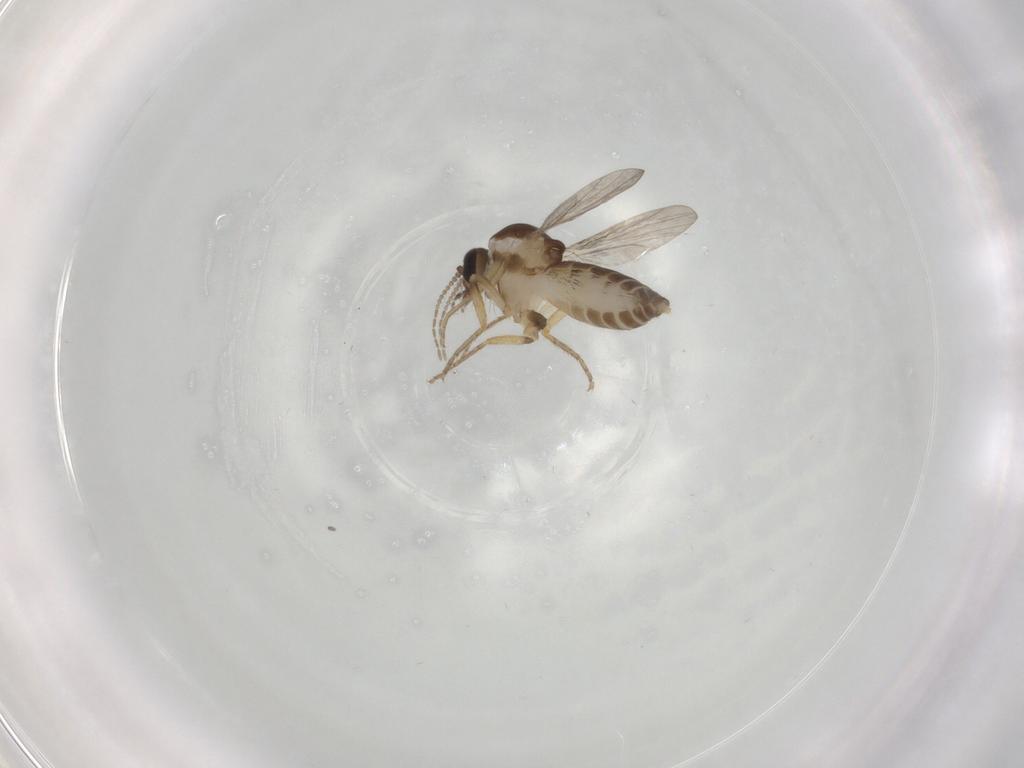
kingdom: Animalia
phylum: Arthropoda
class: Insecta
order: Diptera
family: Ceratopogonidae
